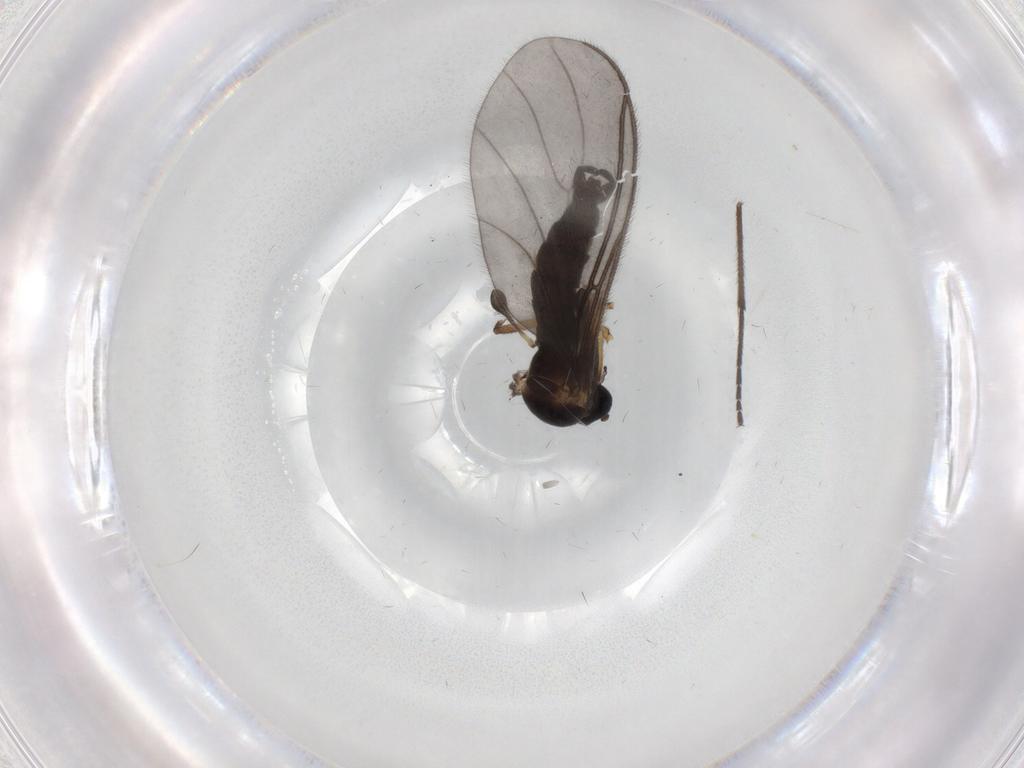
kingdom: Animalia
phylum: Arthropoda
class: Insecta
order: Diptera
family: Sciaridae
